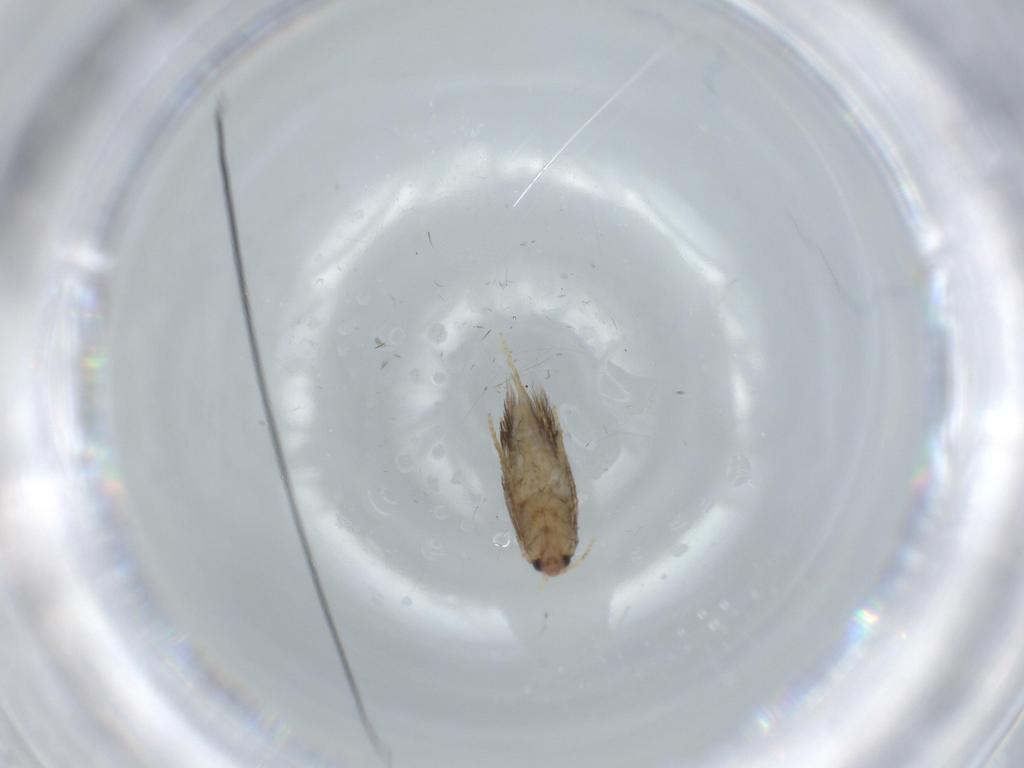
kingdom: Animalia
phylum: Arthropoda
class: Insecta
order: Lepidoptera
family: Nepticulidae
